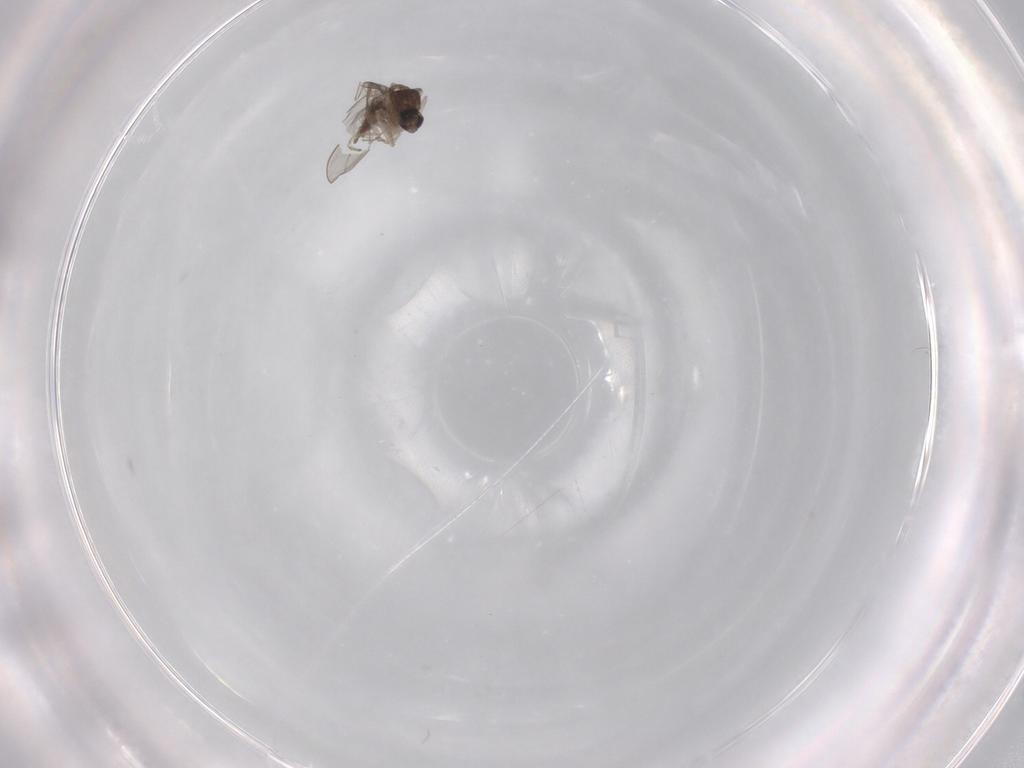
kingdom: Animalia
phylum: Arthropoda
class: Insecta
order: Diptera
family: Cecidomyiidae
